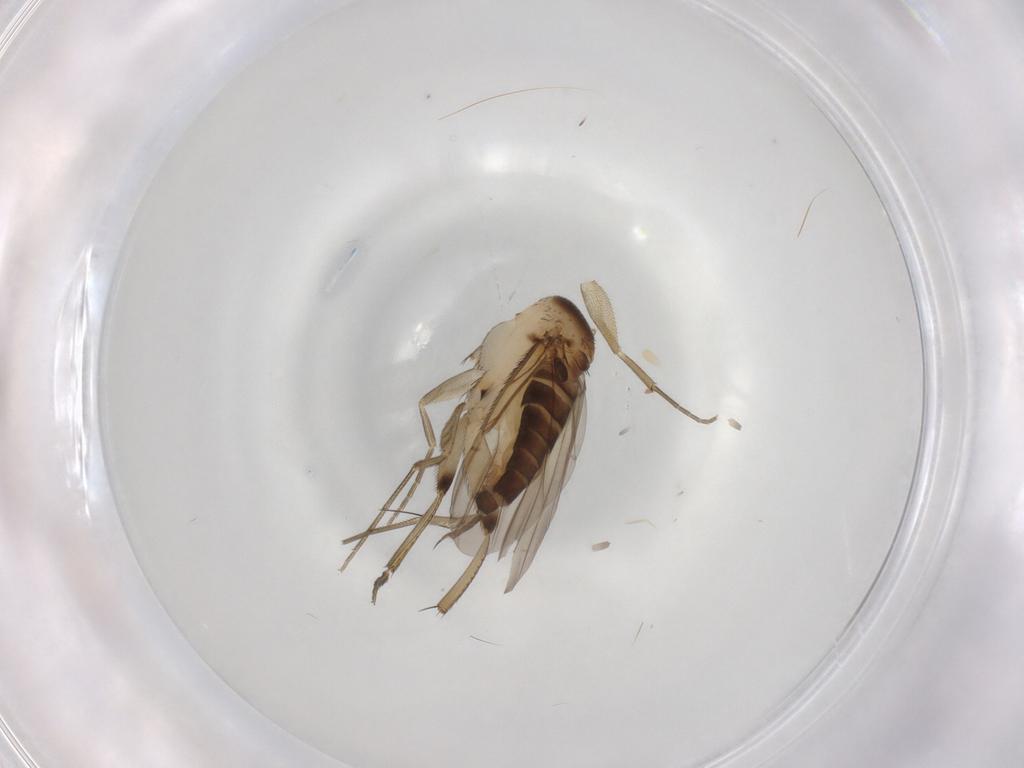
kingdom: Animalia
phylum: Arthropoda
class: Insecta
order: Diptera
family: Phoridae
